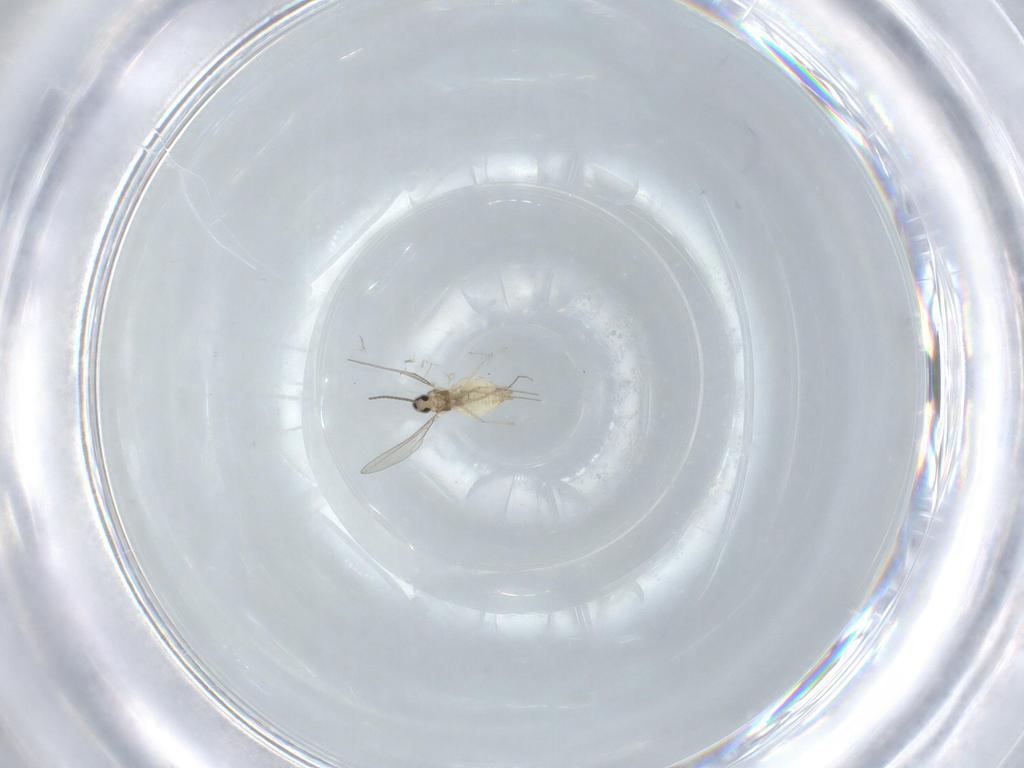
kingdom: Animalia
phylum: Arthropoda
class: Insecta
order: Diptera
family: Cecidomyiidae
